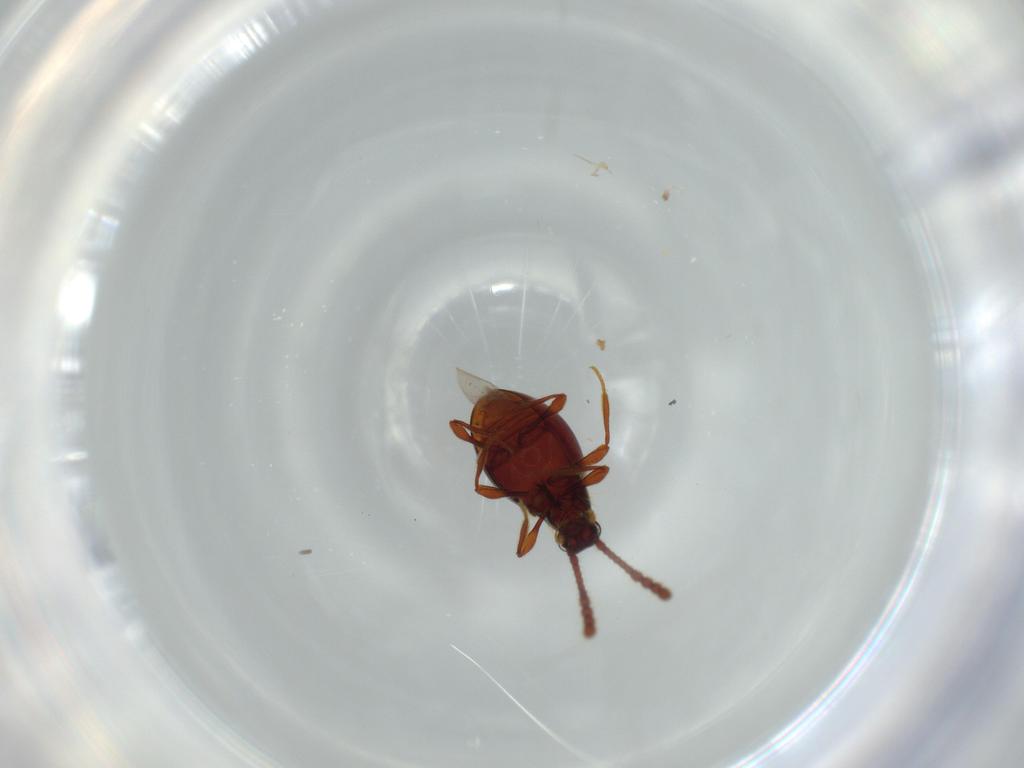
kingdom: Animalia
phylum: Arthropoda
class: Insecta
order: Coleoptera
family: Staphylinidae
